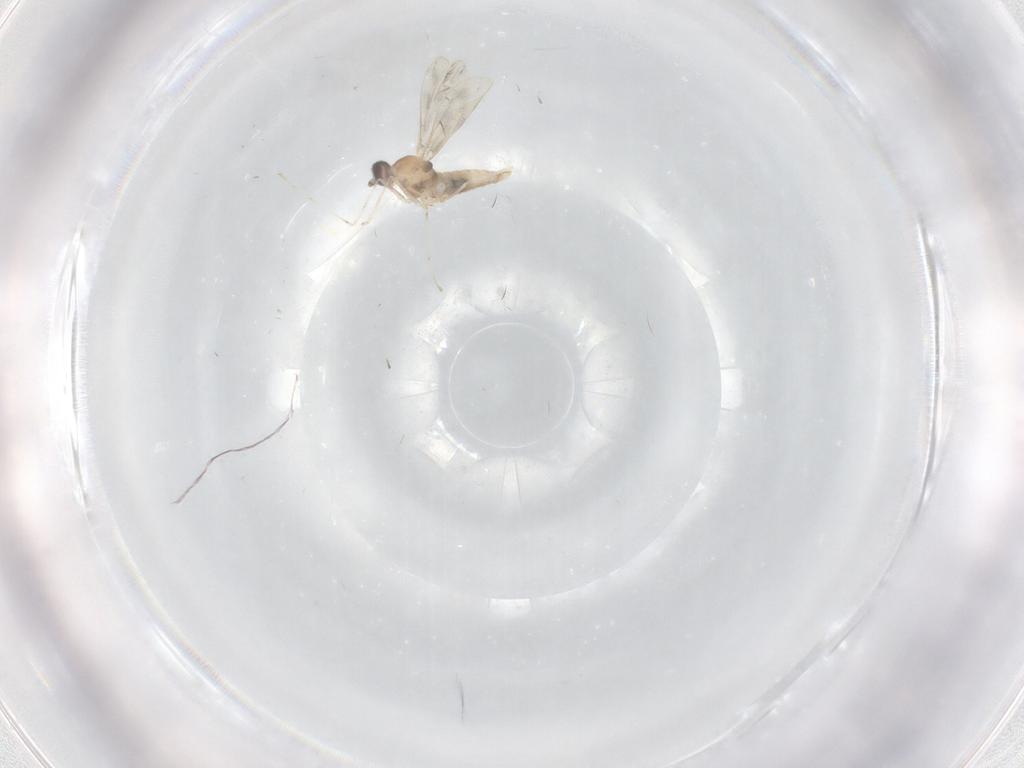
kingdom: Animalia
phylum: Arthropoda
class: Insecta
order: Diptera
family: Cecidomyiidae
